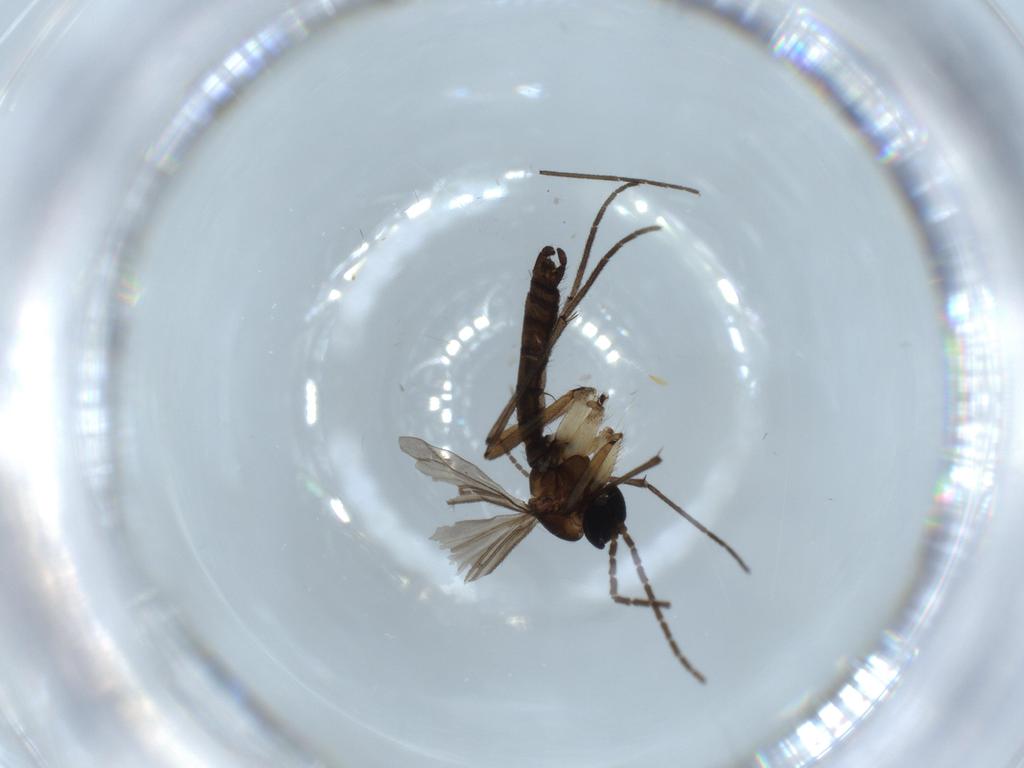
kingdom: Animalia
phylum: Arthropoda
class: Insecta
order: Diptera
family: Sciaridae
